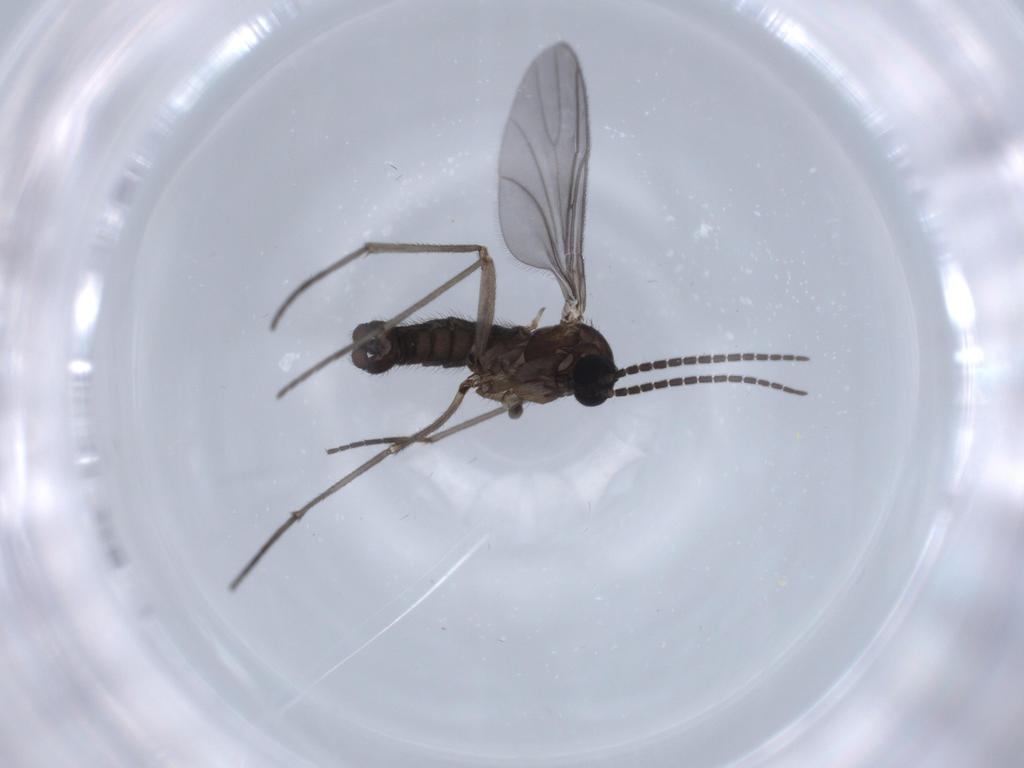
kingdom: Animalia
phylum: Arthropoda
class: Insecta
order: Diptera
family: Sciaridae
